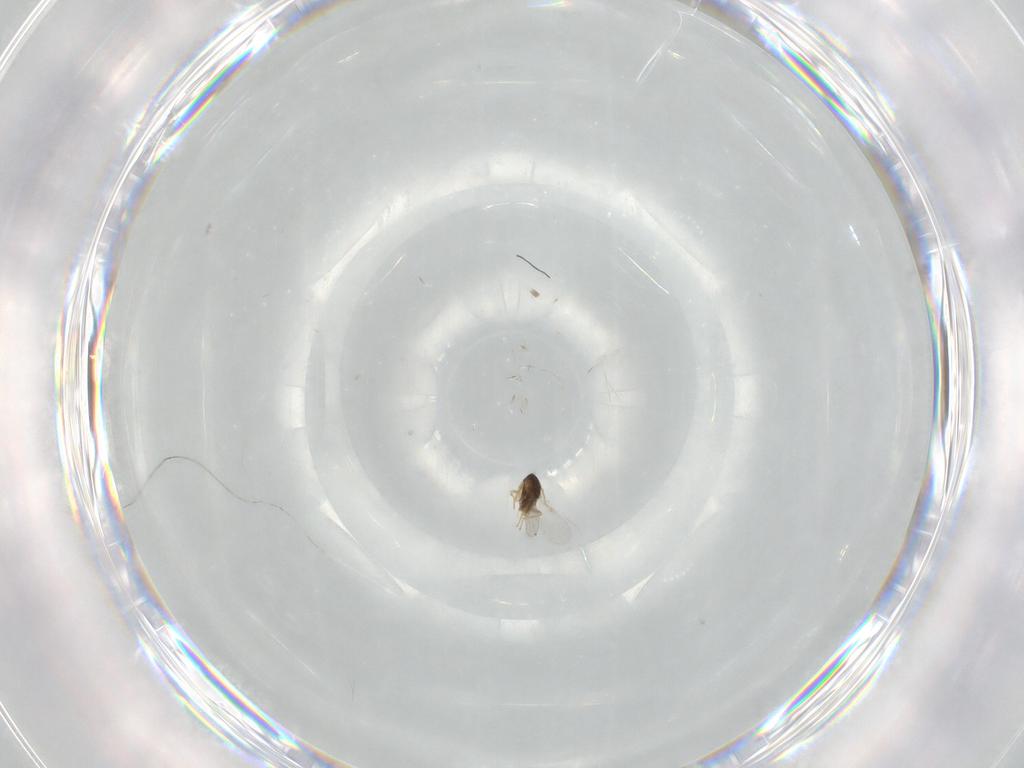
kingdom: Animalia
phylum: Arthropoda
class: Insecta
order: Hymenoptera
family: Encyrtidae
